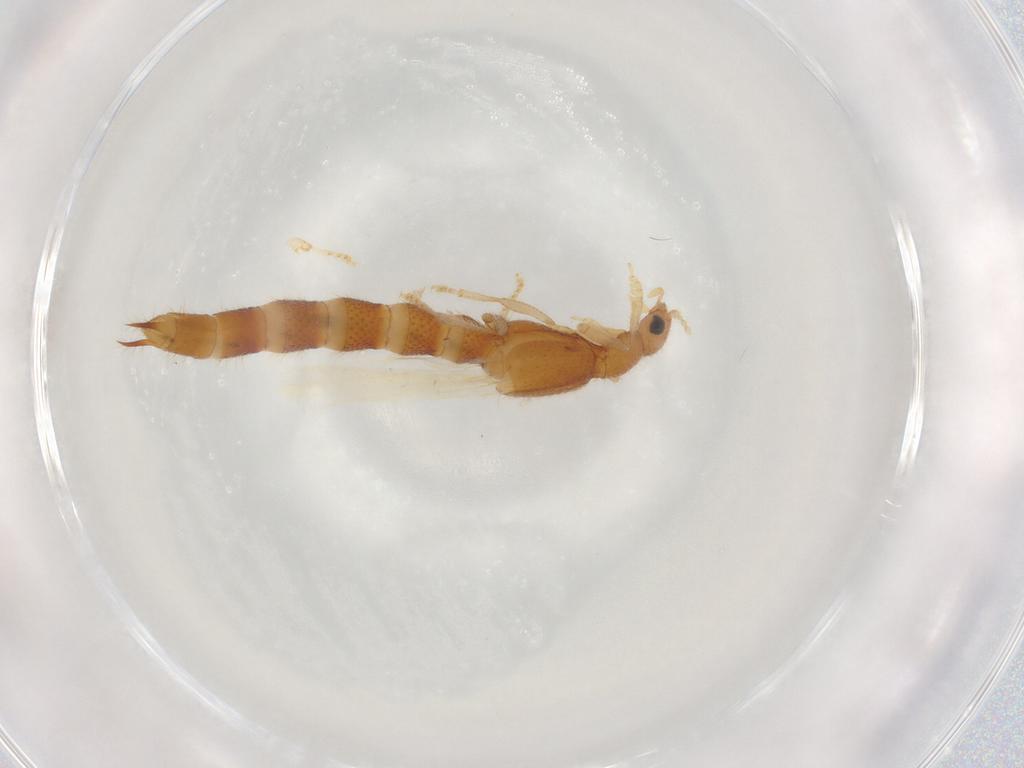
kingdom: Animalia
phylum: Arthropoda
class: Insecta
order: Coleoptera
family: Staphylinidae
